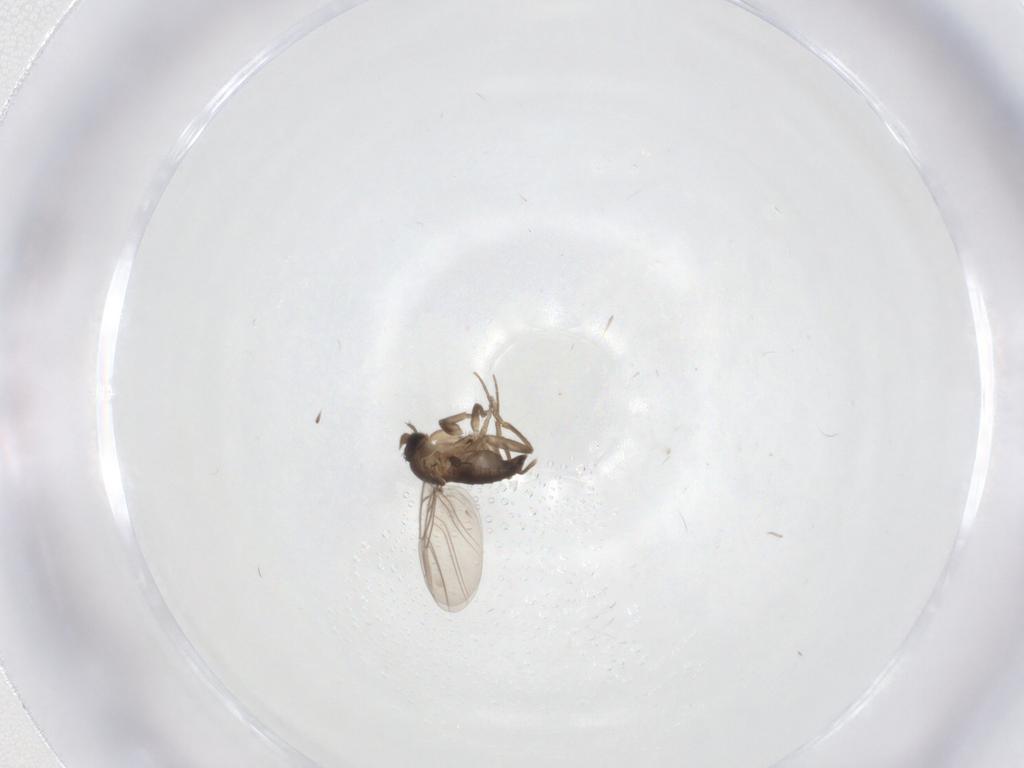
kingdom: Animalia
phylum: Arthropoda
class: Insecta
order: Diptera
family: Phoridae
